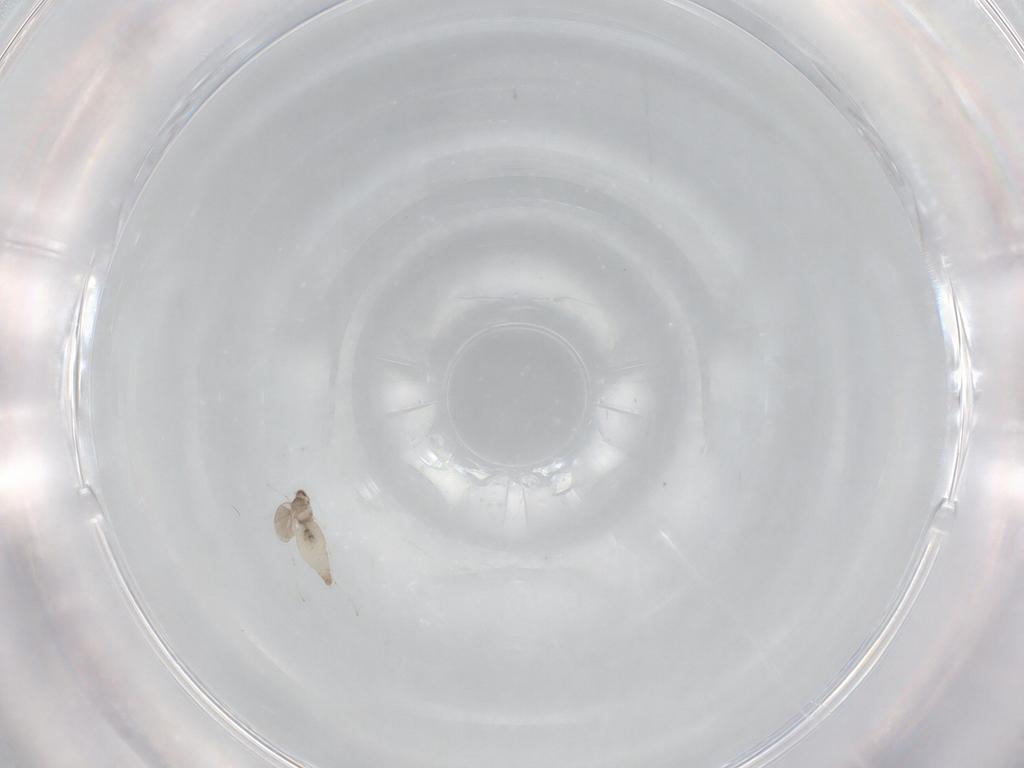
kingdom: Animalia
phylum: Arthropoda
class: Insecta
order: Diptera
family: Cecidomyiidae
